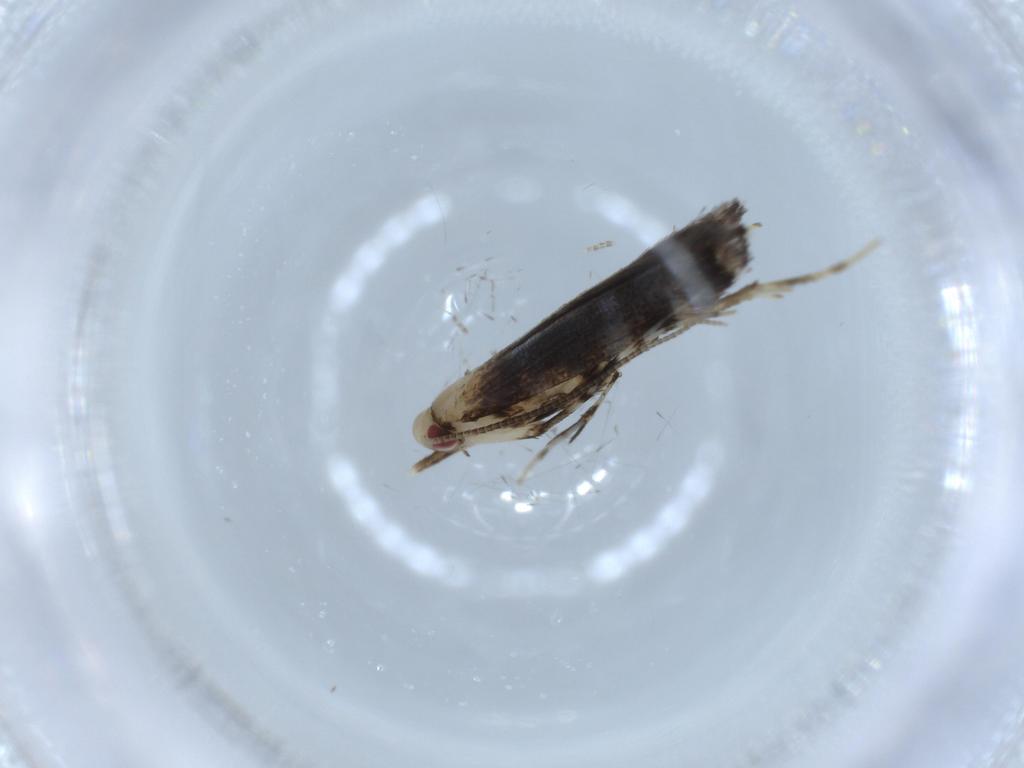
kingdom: Animalia
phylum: Arthropoda
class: Insecta
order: Lepidoptera
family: Gracillariidae
